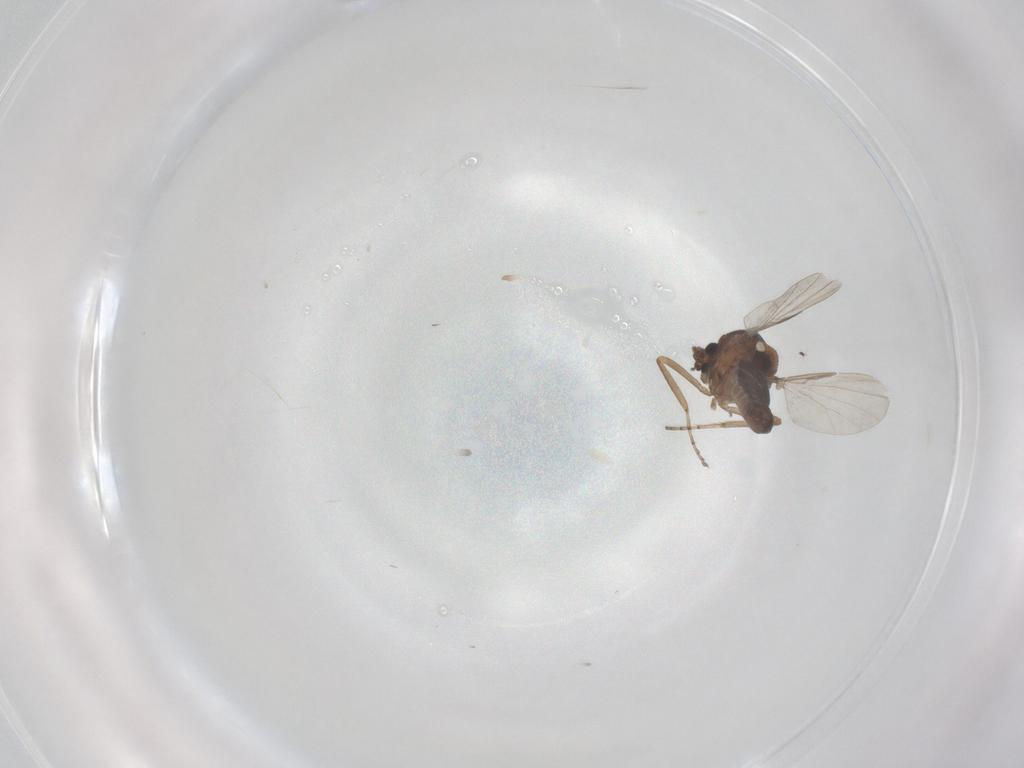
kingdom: Animalia
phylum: Arthropoda
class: Insecta
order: Diptera
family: Ceratopogonidae
